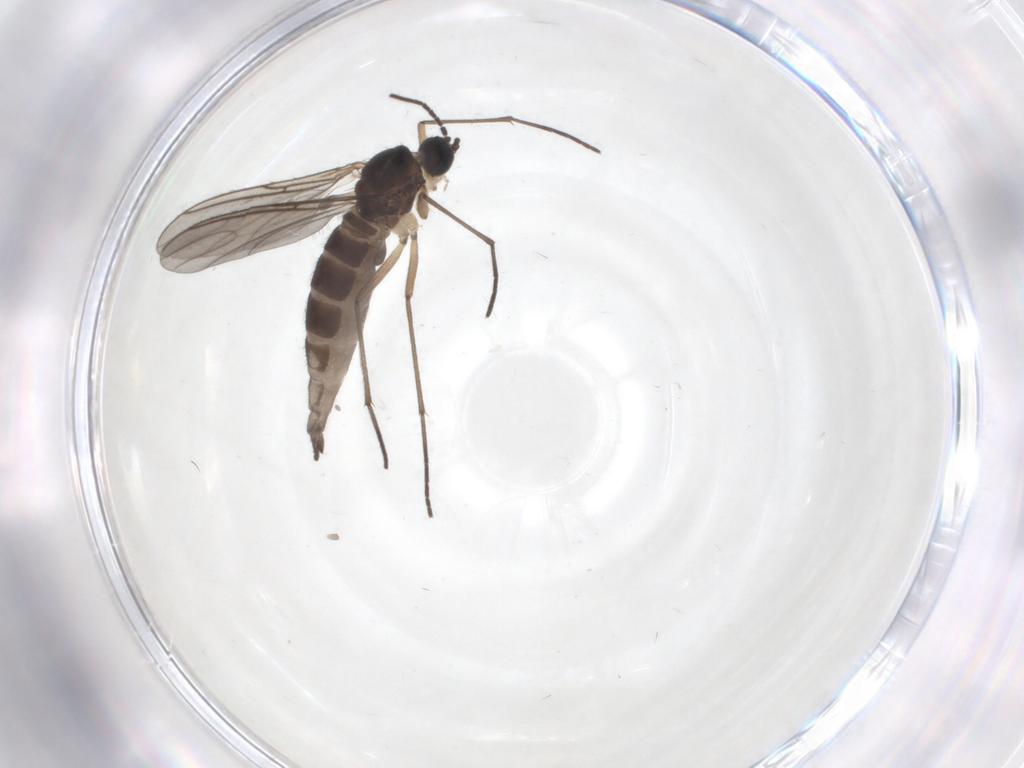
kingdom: Animalia
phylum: Arthropoda
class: Insecta
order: Diptera
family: Sciaridae
